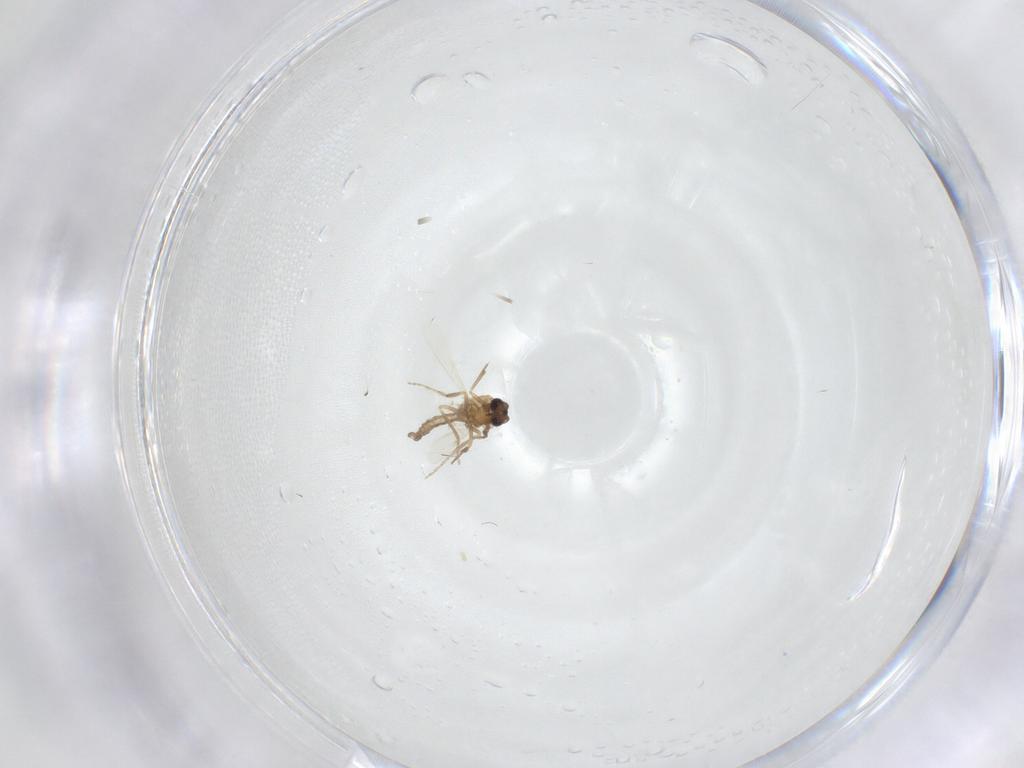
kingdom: Animalia
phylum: Arthropoda
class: Insecta
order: Diptera
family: Ceratopogonidae
